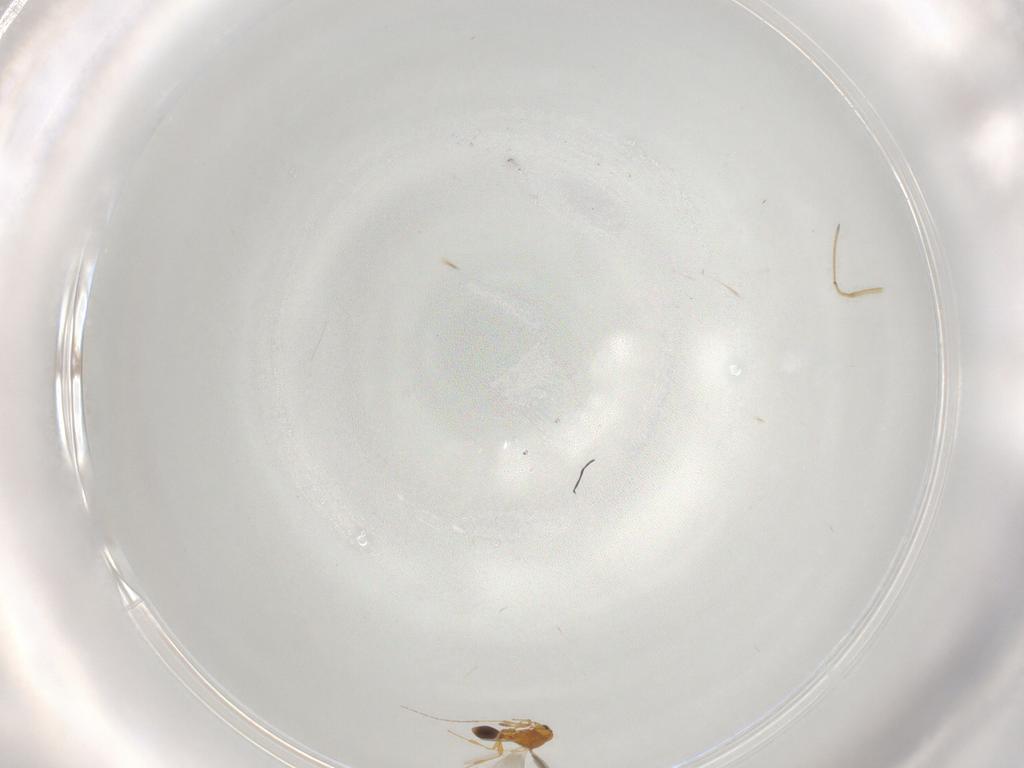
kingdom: Animalia
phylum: Arthropoda
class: Insecta
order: Hymenoptera
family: Platygastridae
